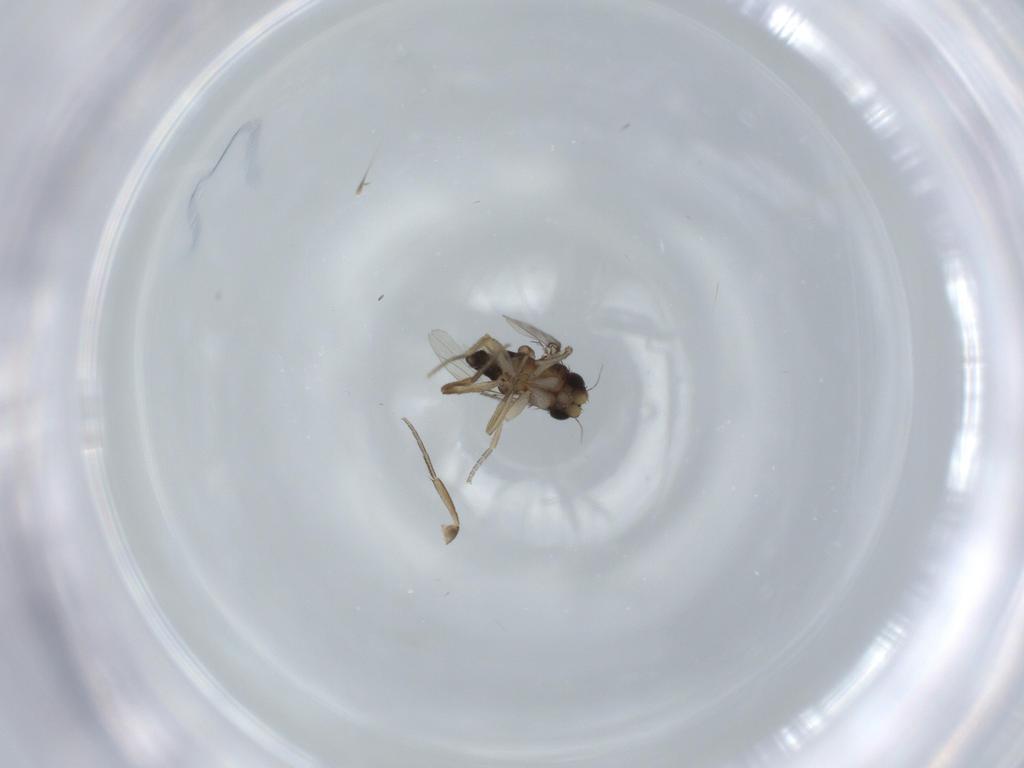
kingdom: Animalia
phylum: Arthropoda
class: Insecta
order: Diptera
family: Phoridae
